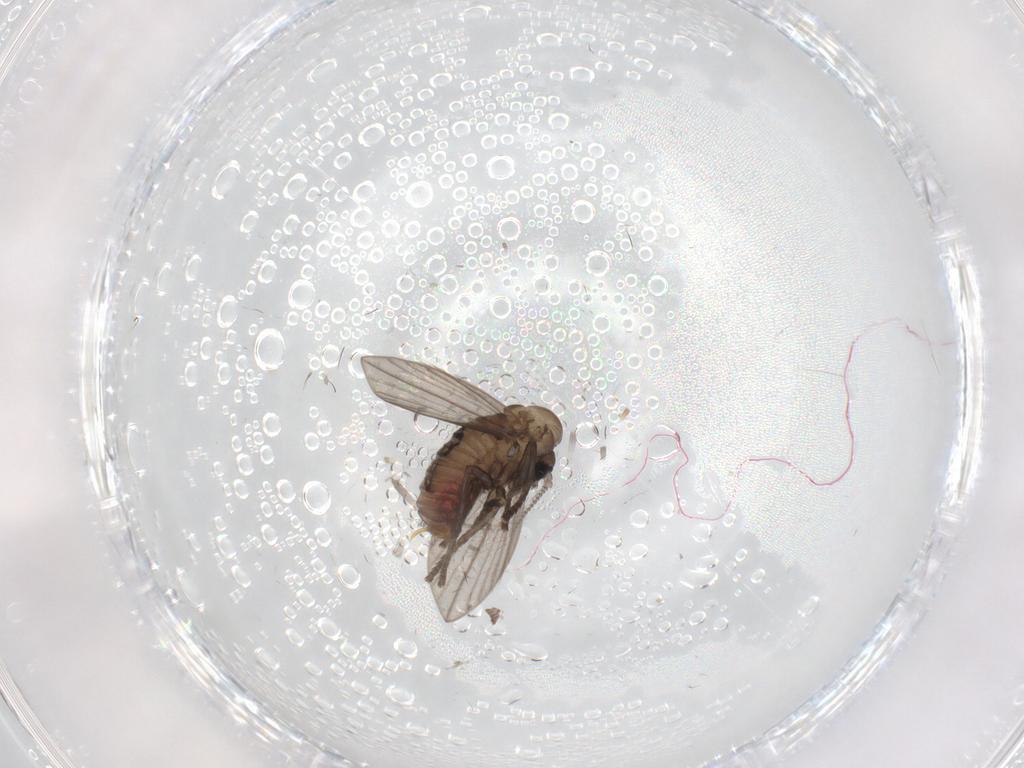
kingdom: Animalia
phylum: Arthropoda
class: Insecta
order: Diptera
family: Psychodidae
